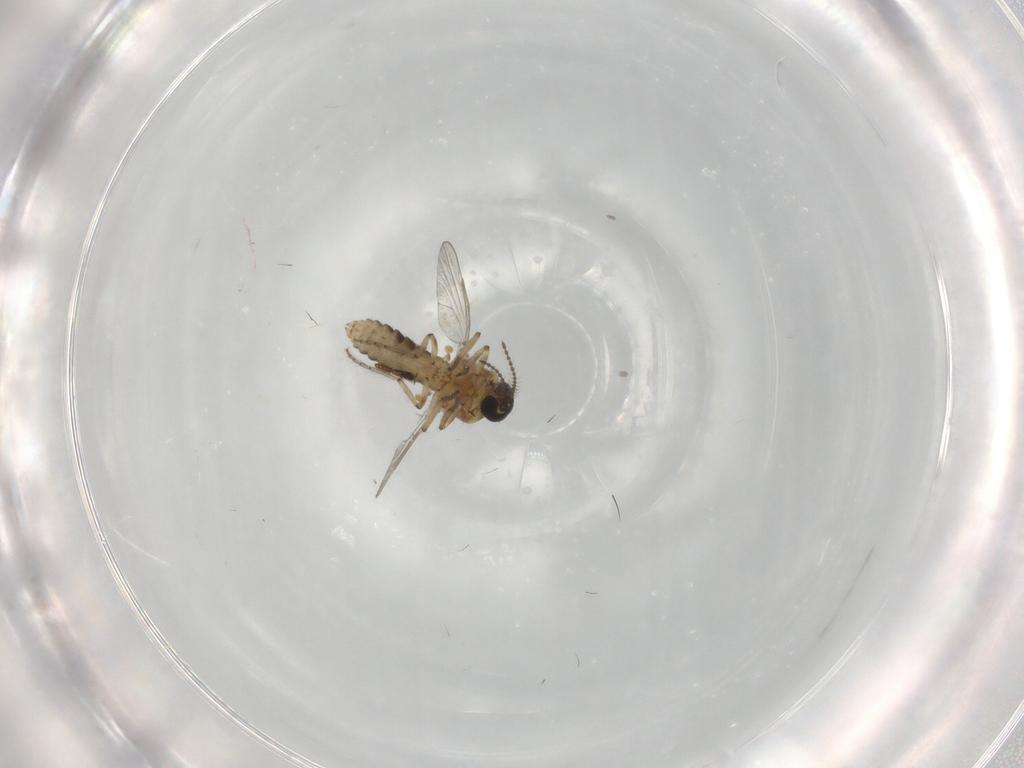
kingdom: Animalia
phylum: Arthropoda
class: Insecta
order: Diptera
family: Ceratopogonidae
